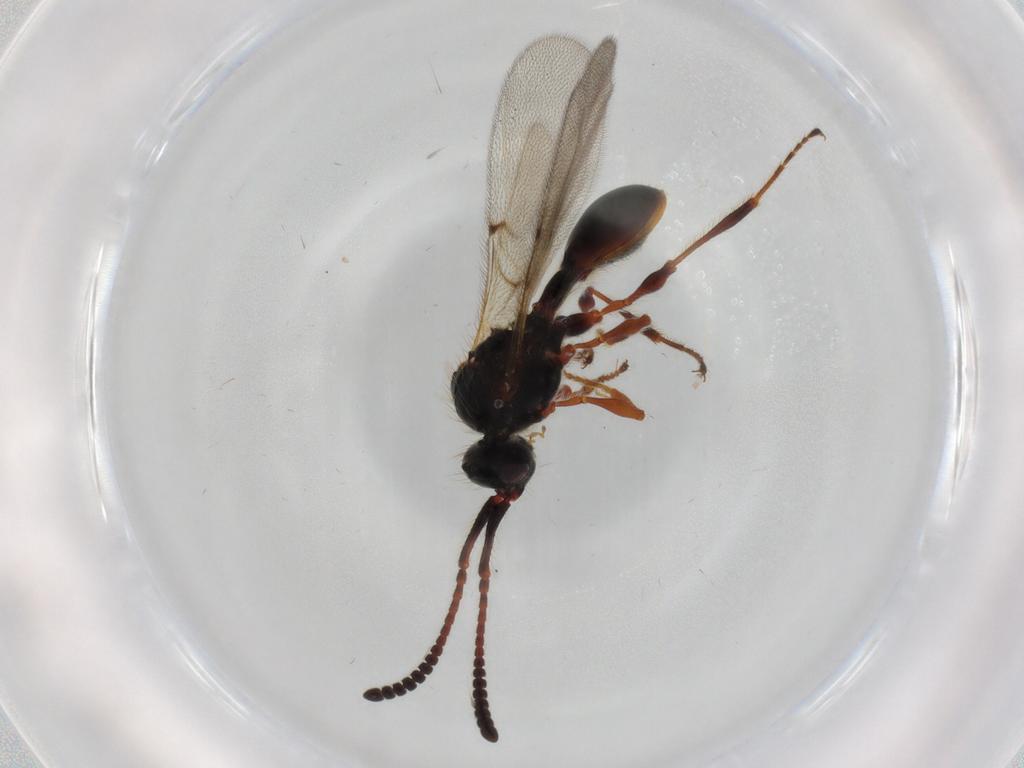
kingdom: Animalia
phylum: Arthropoda
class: Insecta
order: Hymenoptera
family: Diapriidae
